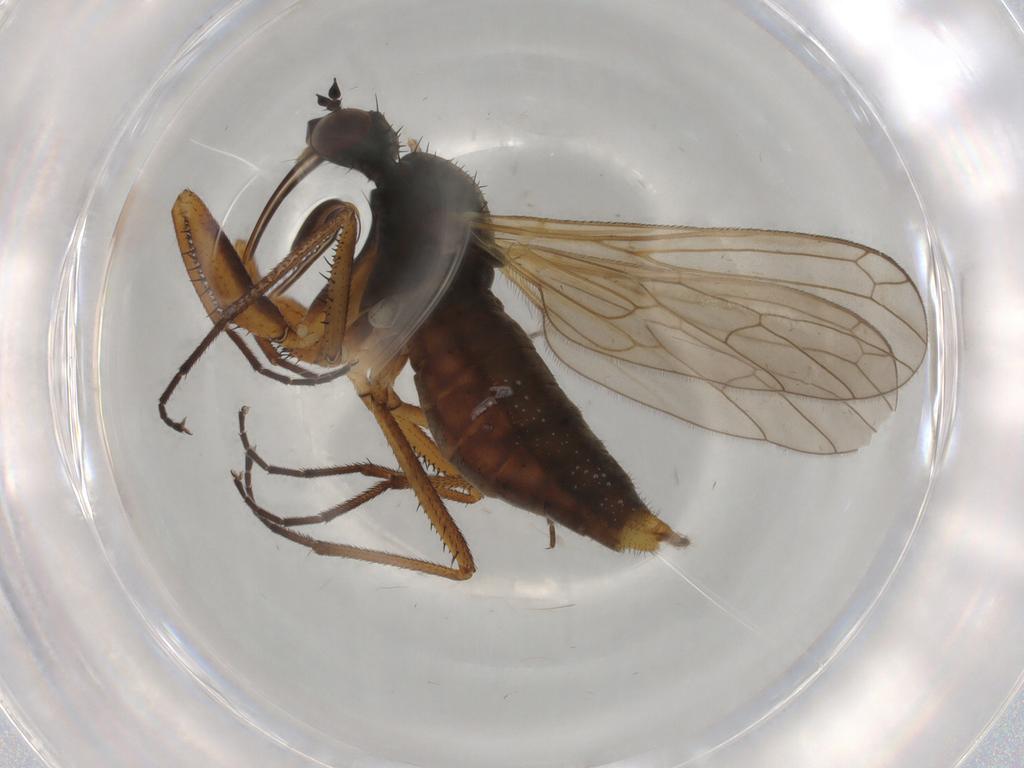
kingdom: Animalia
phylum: Arthropoda
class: Insecta
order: Diptera
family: Empididae
